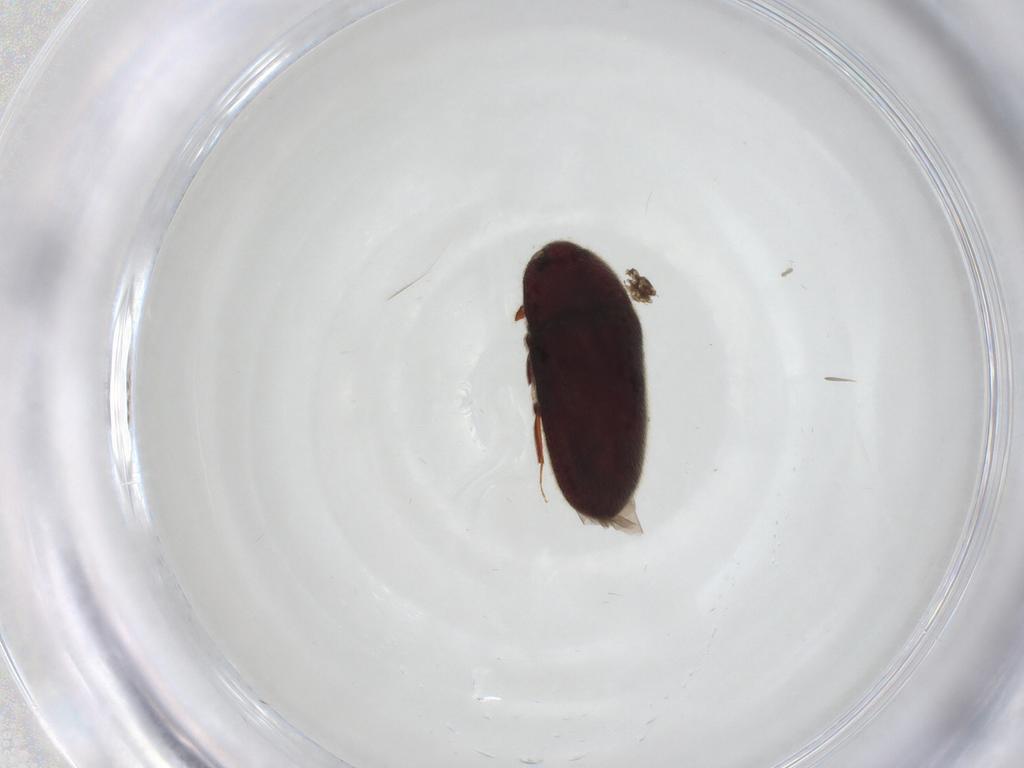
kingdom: Animalia
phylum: Arthropoda
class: Insecta
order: Coleoptera
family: Throscidae
